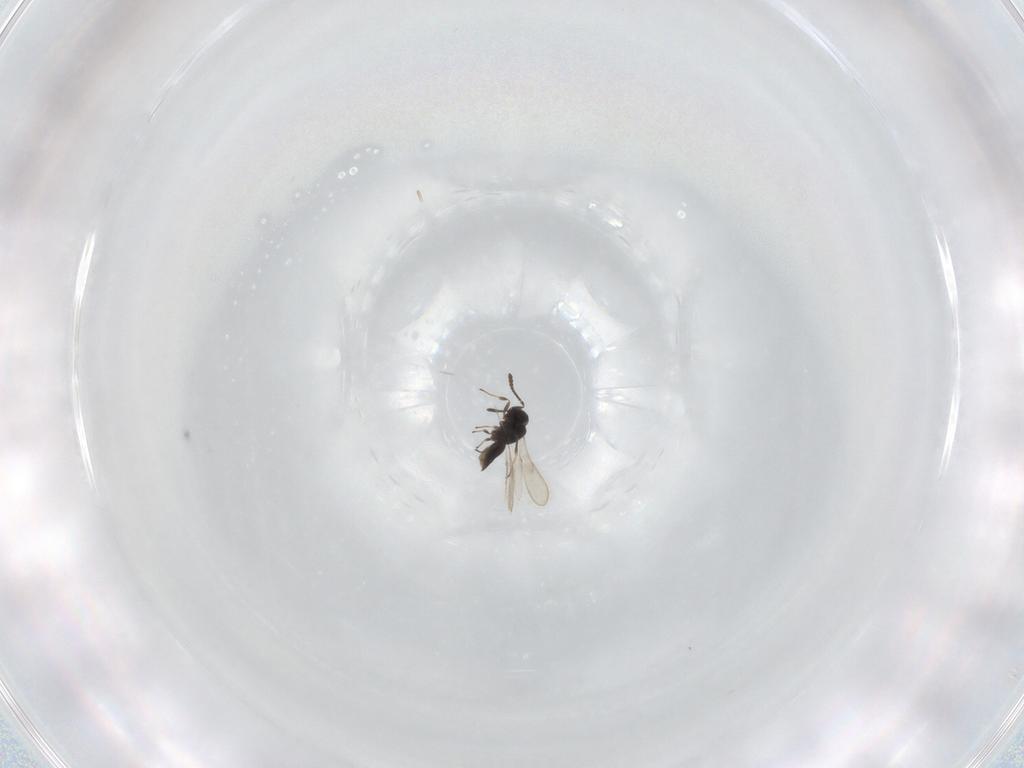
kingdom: Animalia
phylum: Arthropoda
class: Insecta
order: Hymenoptera
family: Scelionidae
